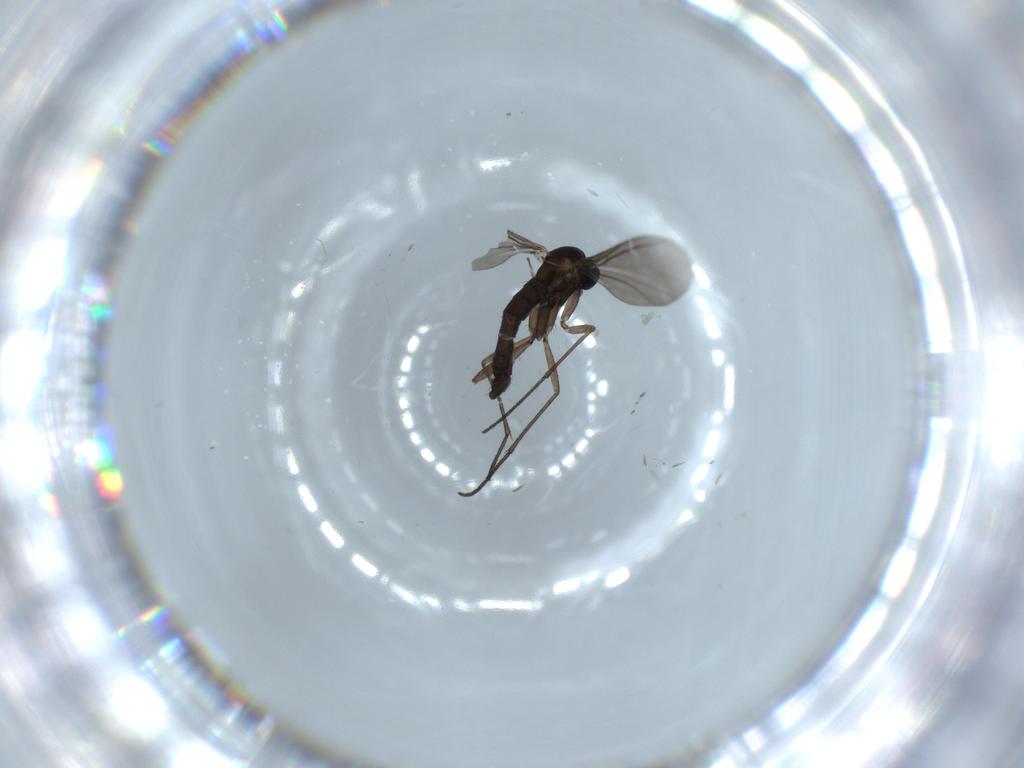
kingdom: Animalia
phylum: Arthropoda
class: Insecta
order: Diptera
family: Sciaridae
